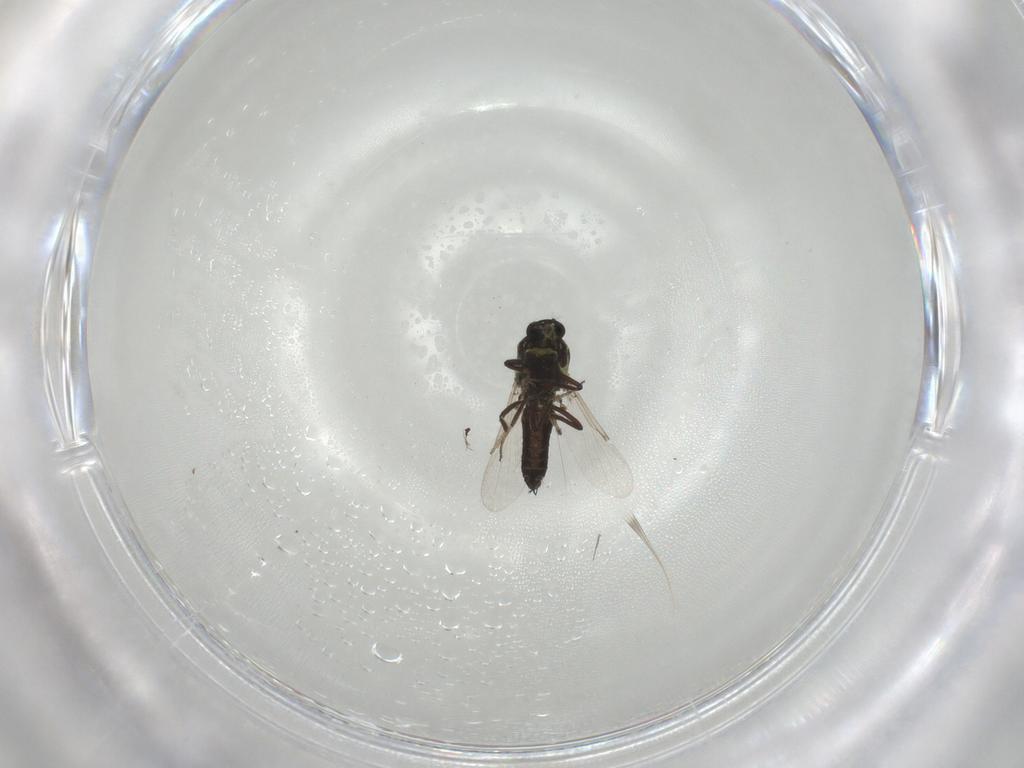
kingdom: Animalia
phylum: Arthropoda
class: Insecta
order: Diptera
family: Ceratopogonidae
